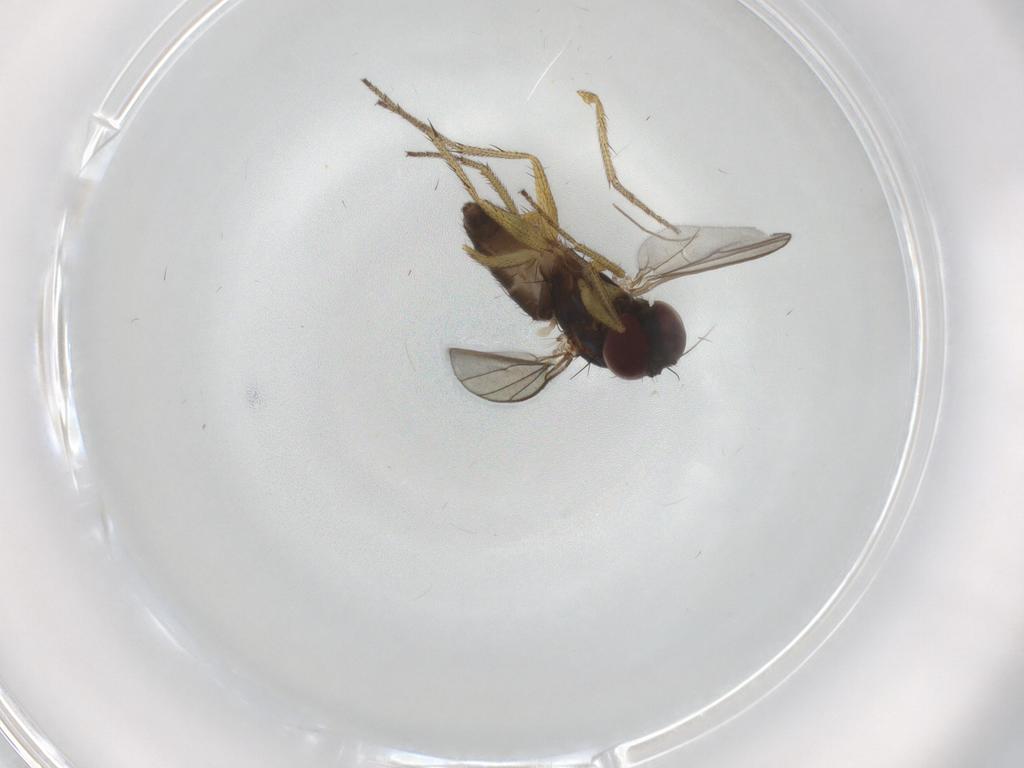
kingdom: Animalia
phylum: Arthropoda
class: Insecta
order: Diptera
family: Dolichopodidae
